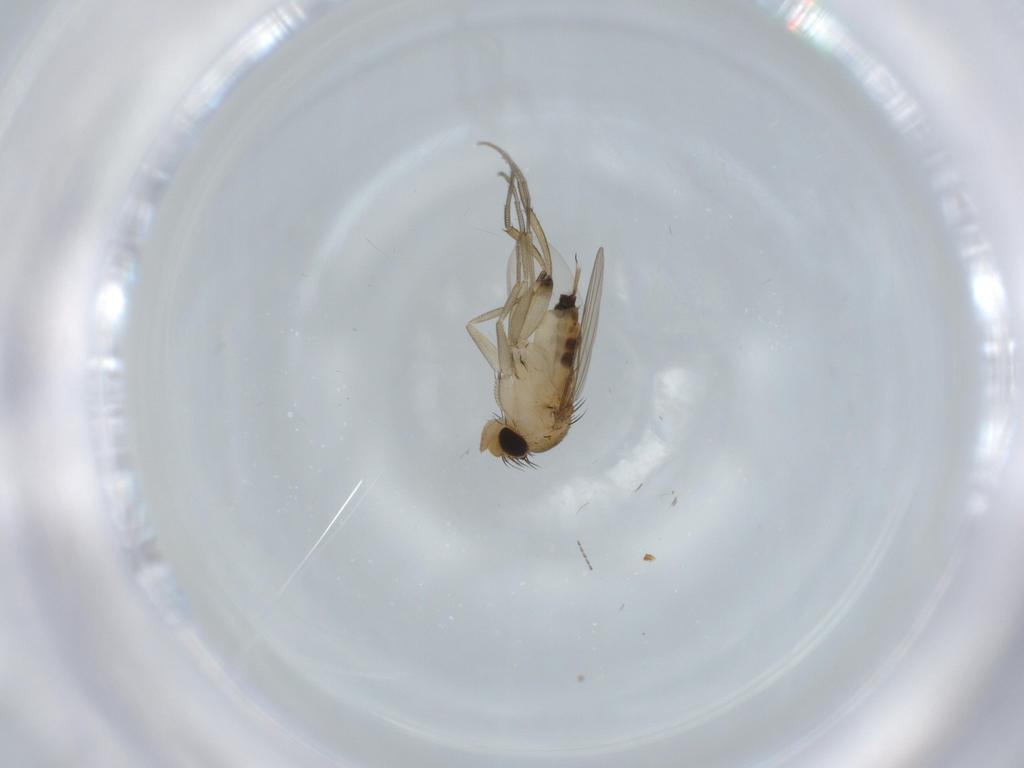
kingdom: Animalia
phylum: Arthropoda
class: Insecta
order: Diptera
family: Phoridae
